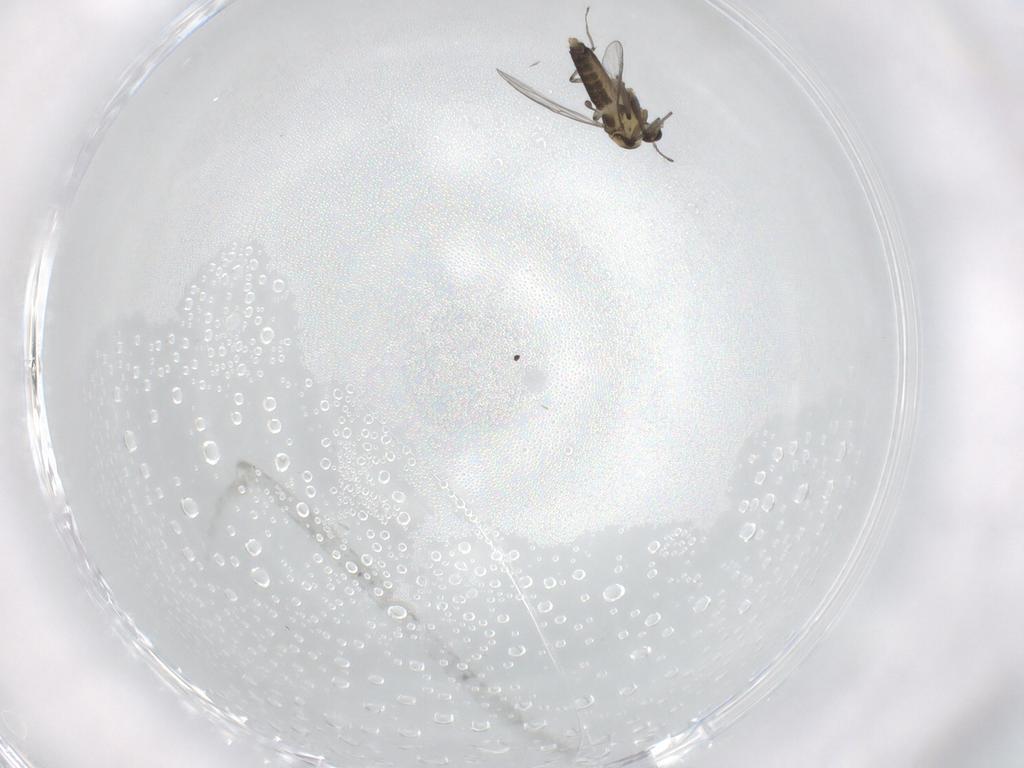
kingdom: Animalia
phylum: Arthropoda
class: Insecta
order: Diptera
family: Chironomidae
